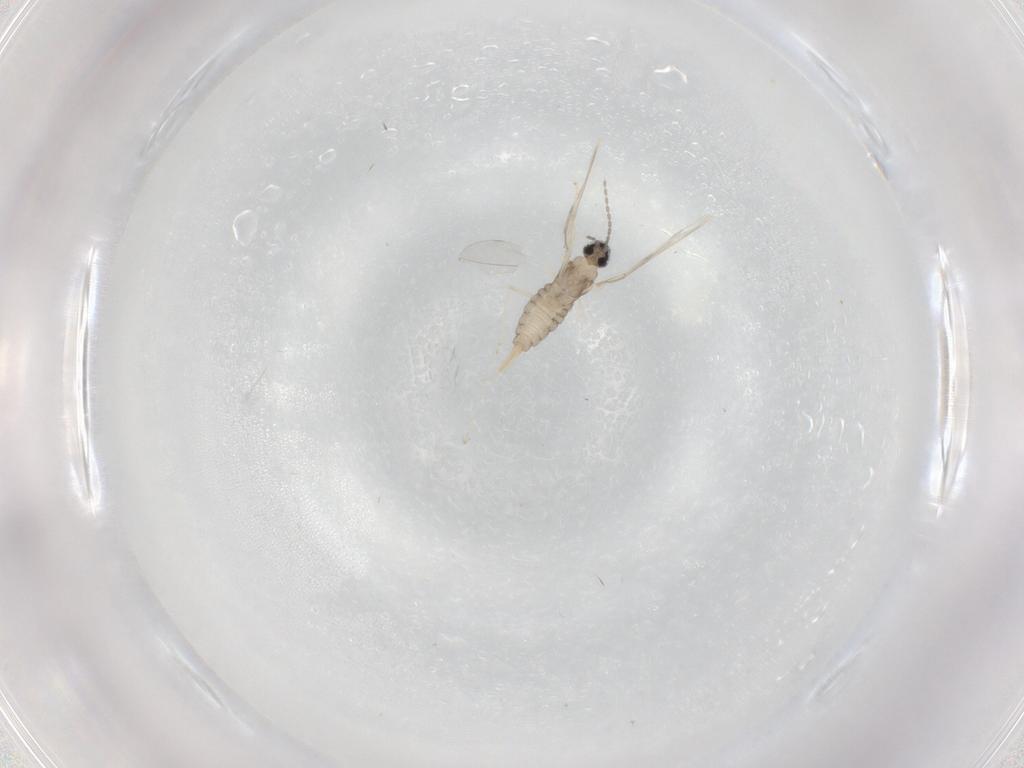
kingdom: Animalia
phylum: Arthropoda
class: Insecta
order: Diptera
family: Cecidomyiidae
